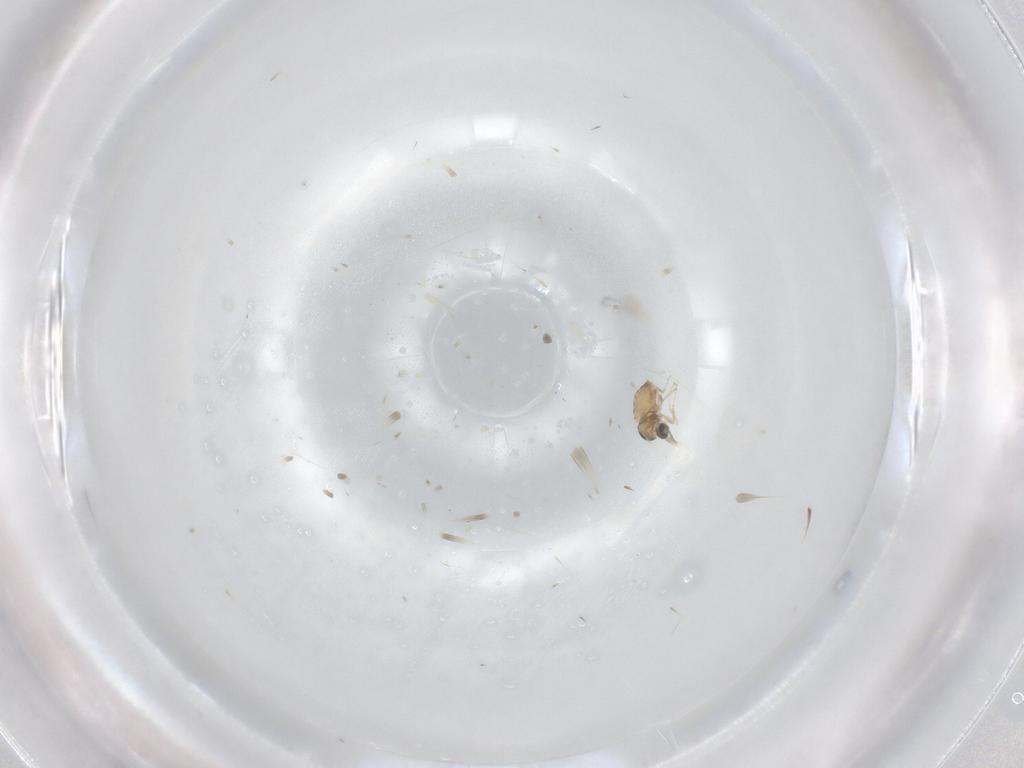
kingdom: Animalia
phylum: Arthropoda
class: Insecta
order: Diptera
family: Cecidomyiidae
